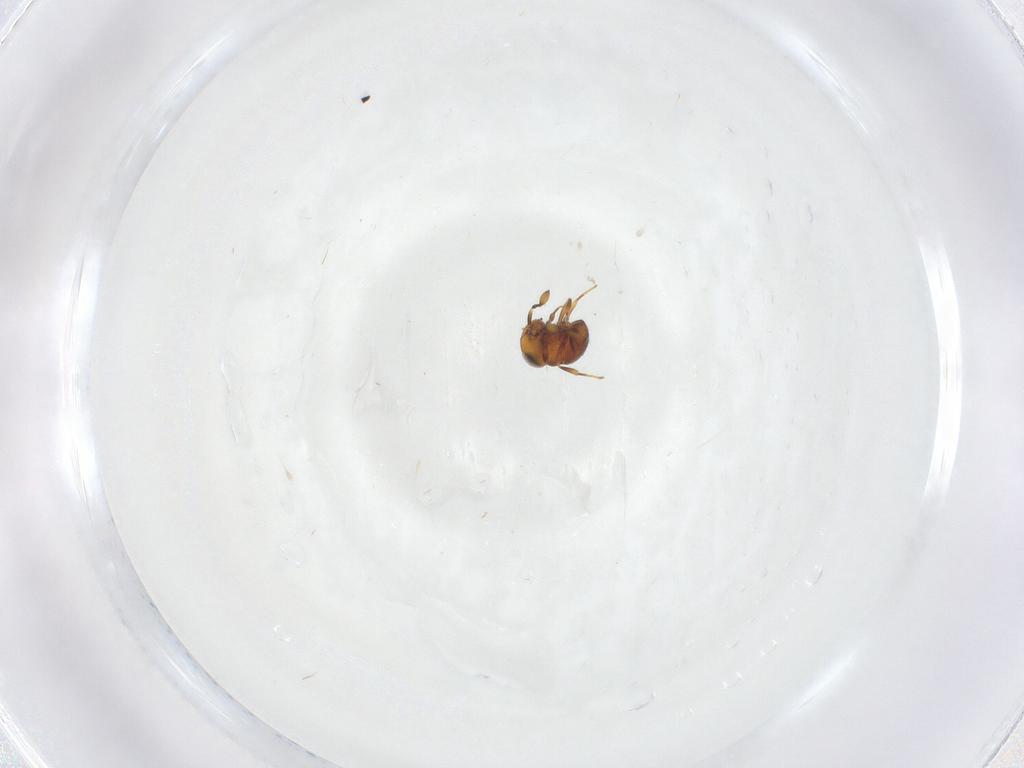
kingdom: Animalia
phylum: Arthropoda
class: Insecta
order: Hymenoptera
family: Scelionidae
